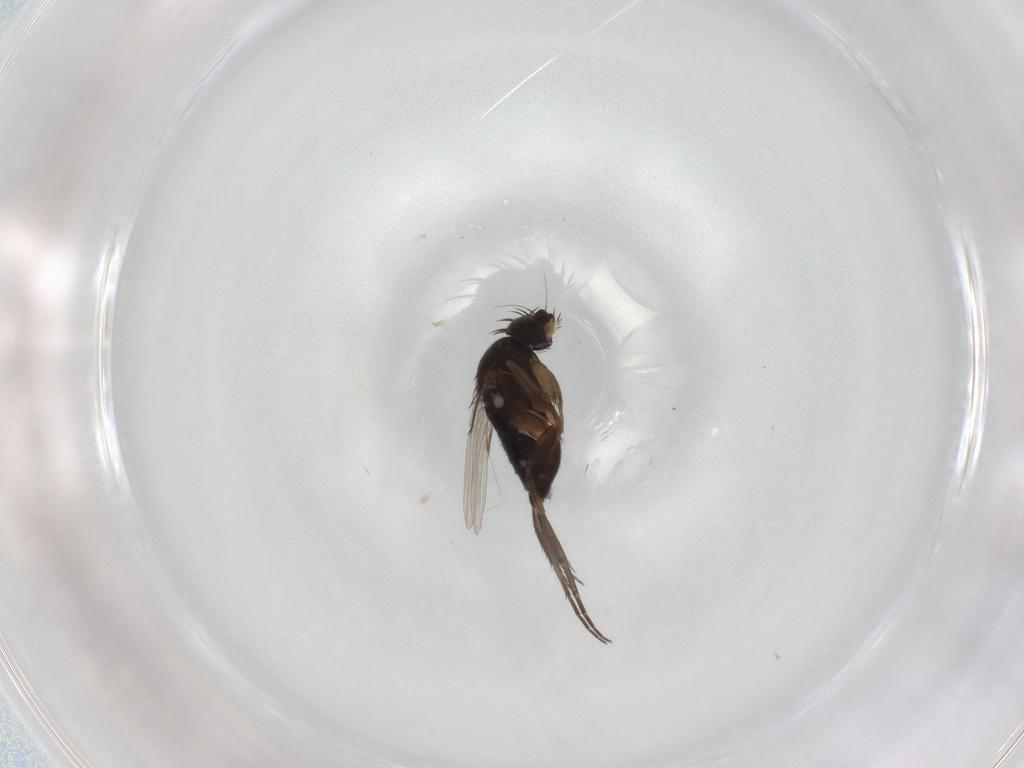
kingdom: Animalia
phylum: Arthropoda
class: Insecta
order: Diptera
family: Phoridae
